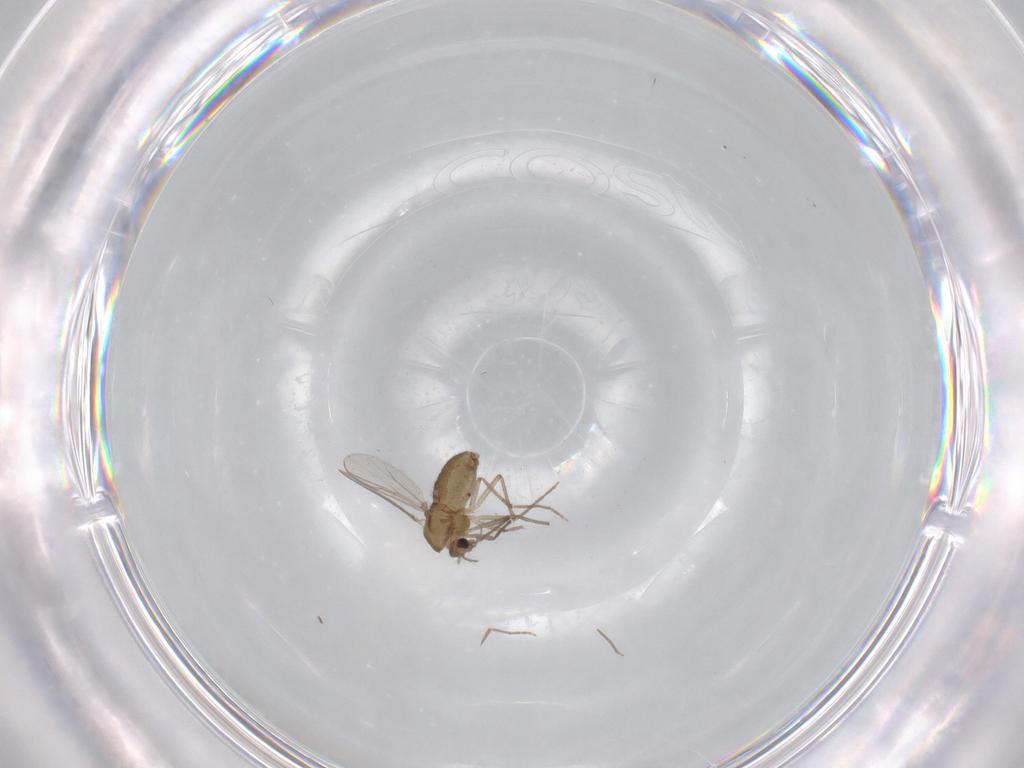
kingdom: Animalia
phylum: Arthropoda
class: Insecta
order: Diptera
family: Chironomidae
